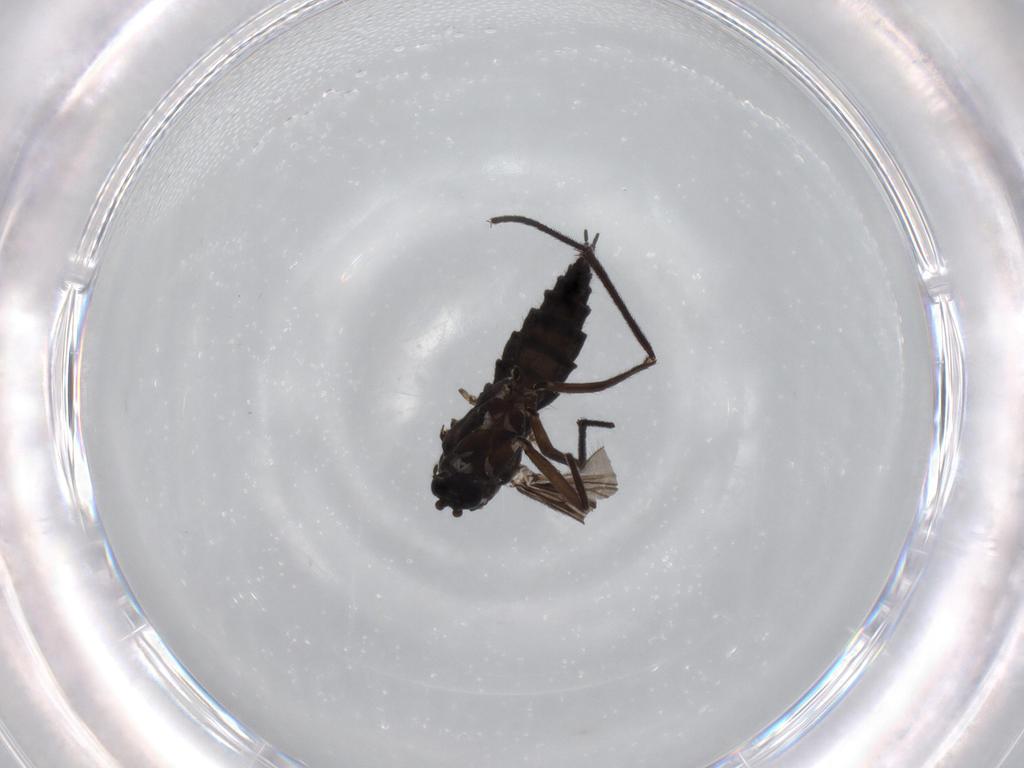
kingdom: Animalia
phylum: Arthropoda
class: Insecta
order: Diptera
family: Sciaridae
